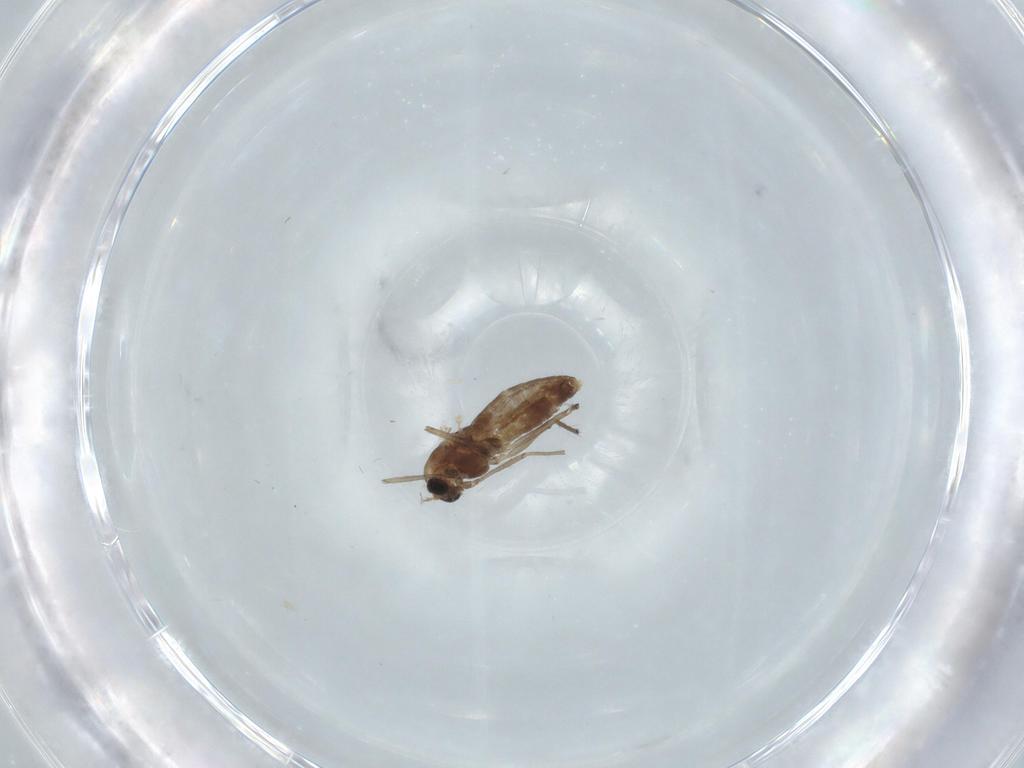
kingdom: Animalia
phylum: Arthropoda
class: Insecta
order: Diptera
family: Chironomidae
